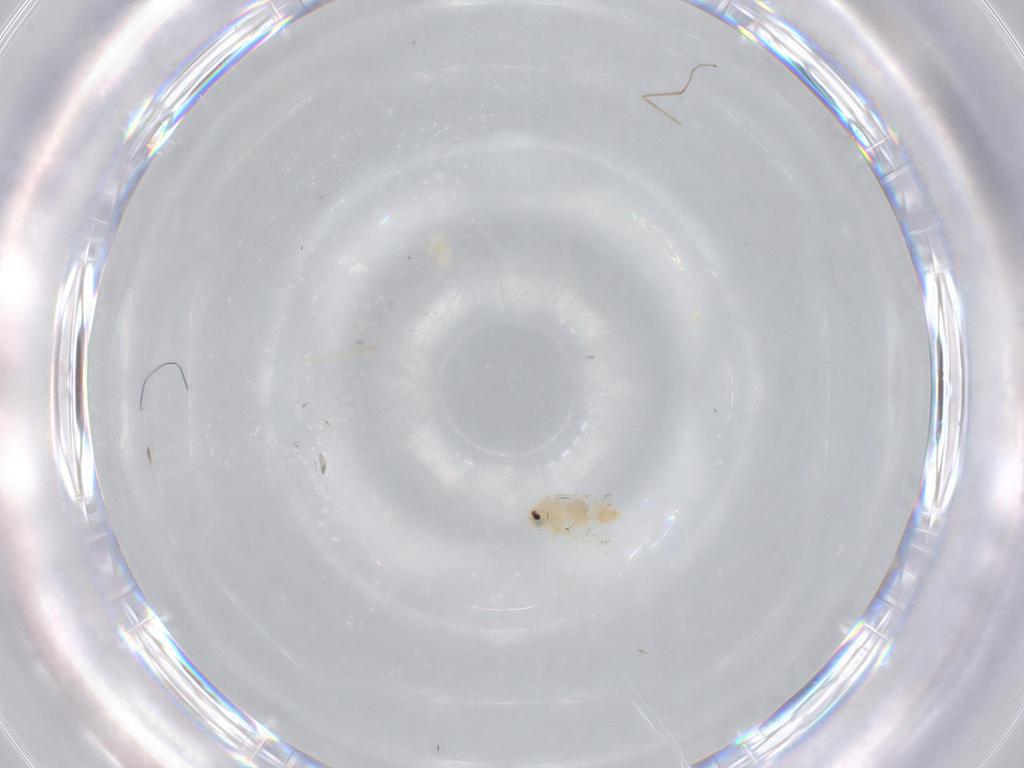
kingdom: Animalia
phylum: Arthropoda
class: Insecta
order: Hemiptera
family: Aleyrodidae
